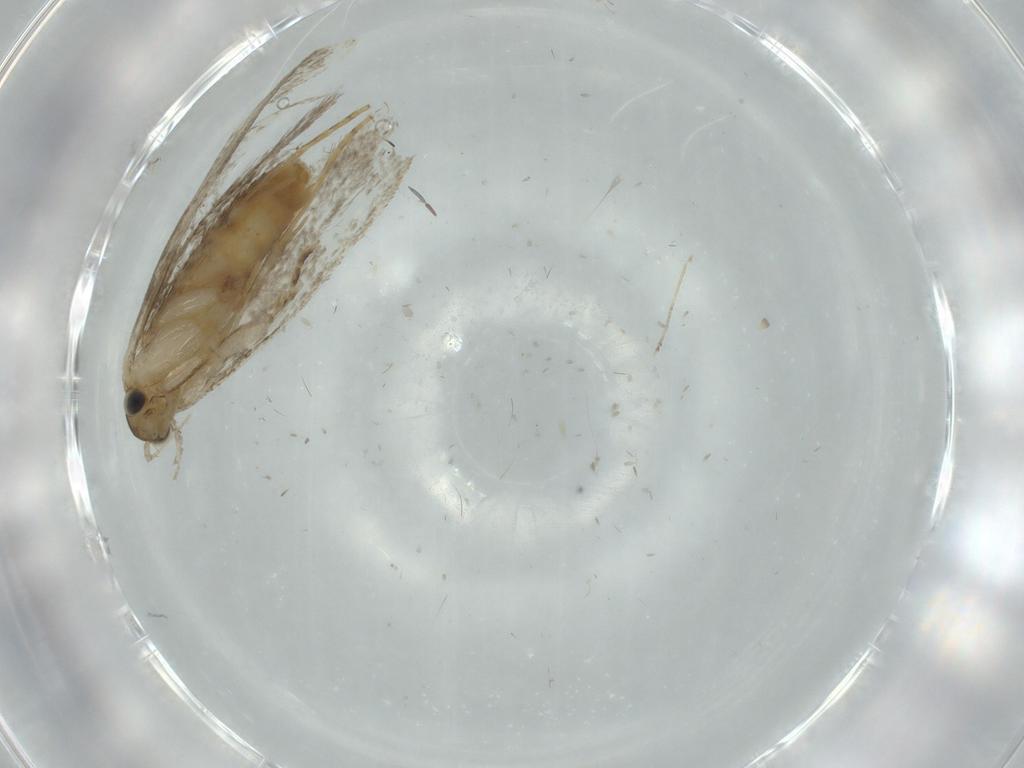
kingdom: Animalia
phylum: Arthropoda
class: Insecta
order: Lepidoptera
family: Tineidae
